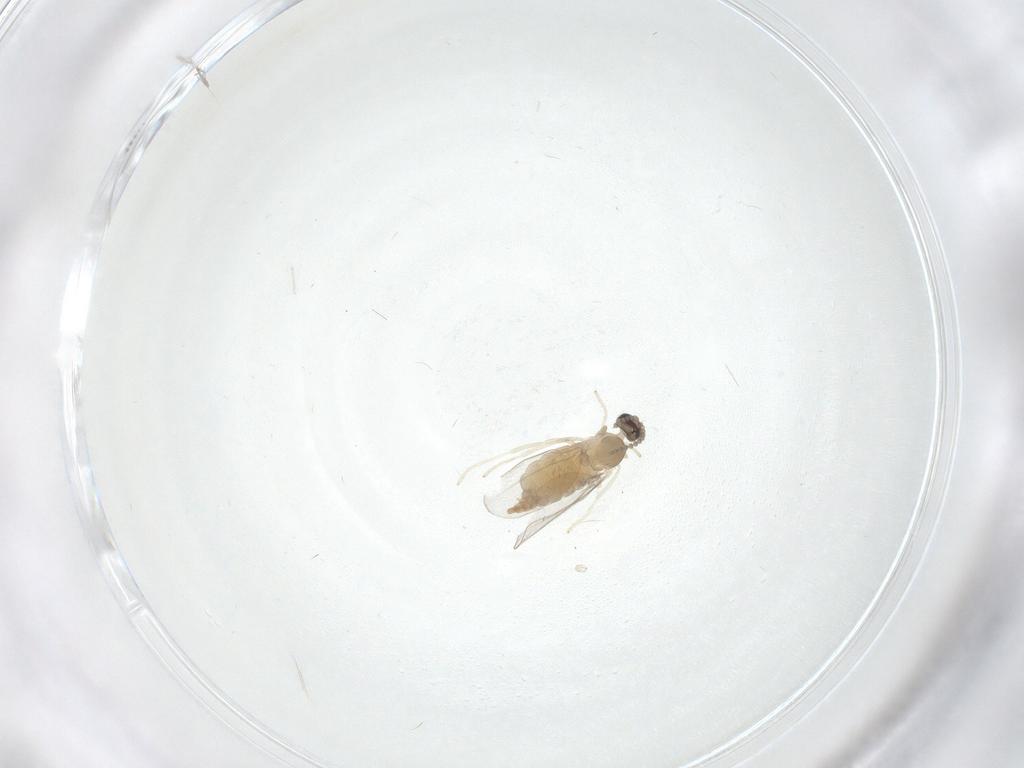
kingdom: Animalia
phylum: Arthropoda
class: Insecta
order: Diptera
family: Cecidomyiidae
